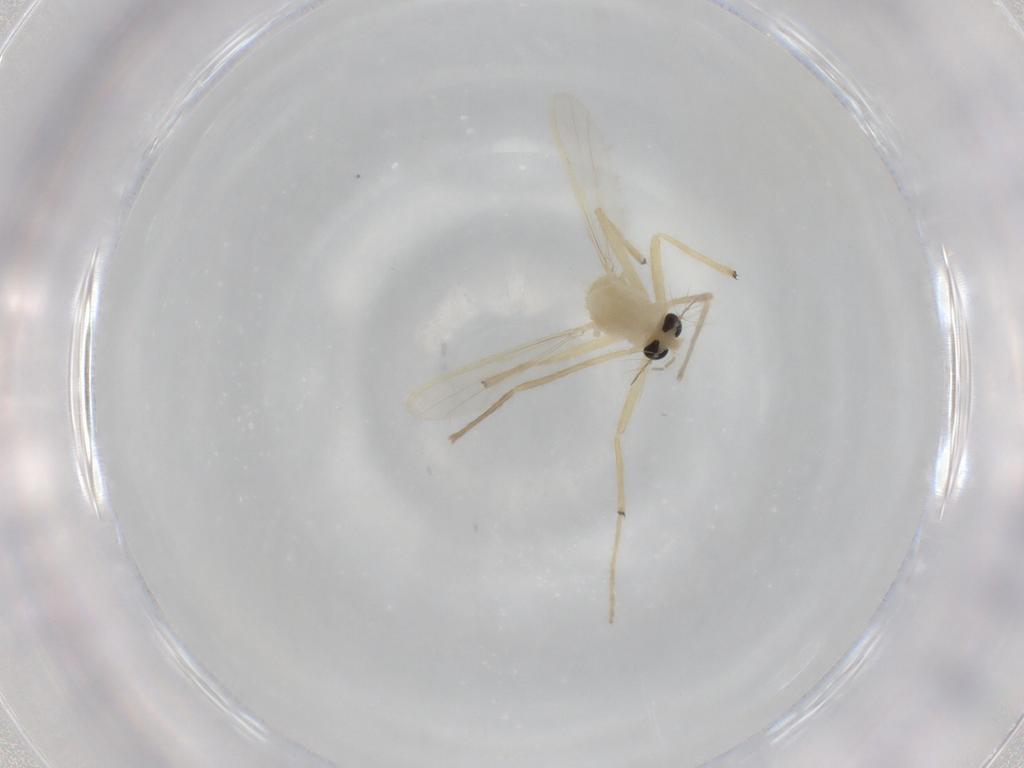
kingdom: Animalia
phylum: Arthropoda
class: Insecta
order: Diptera
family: Chironomidae
